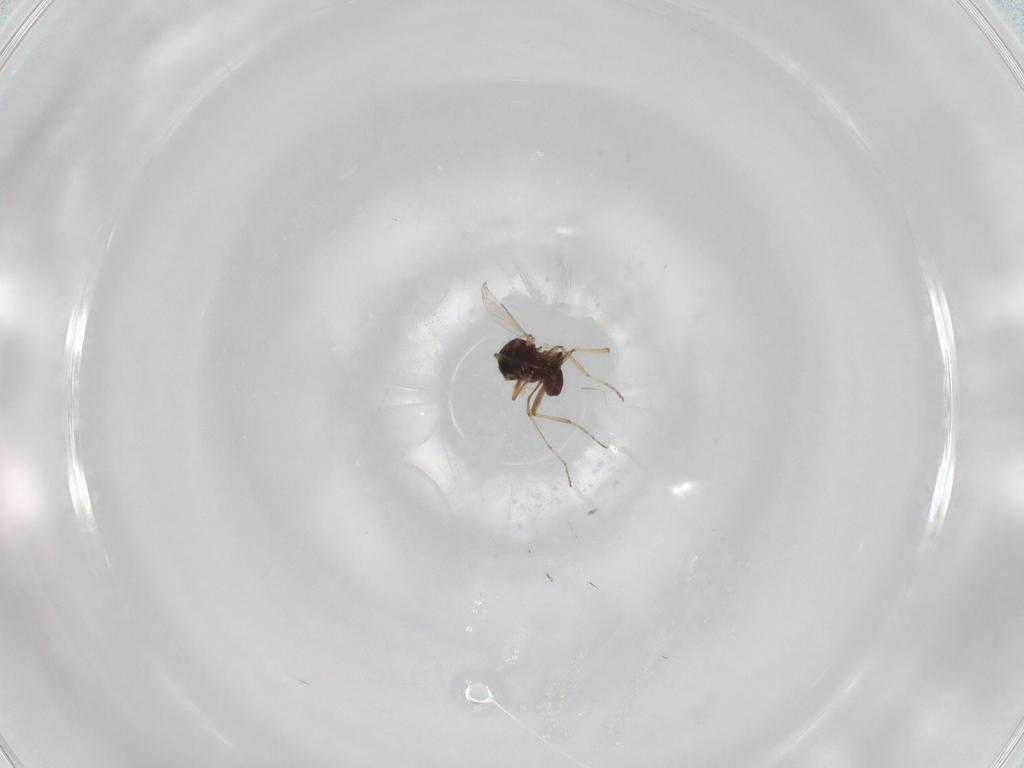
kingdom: Animalia
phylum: Arthropoda
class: Insecta
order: Diptera
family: Ceratopogonidae
